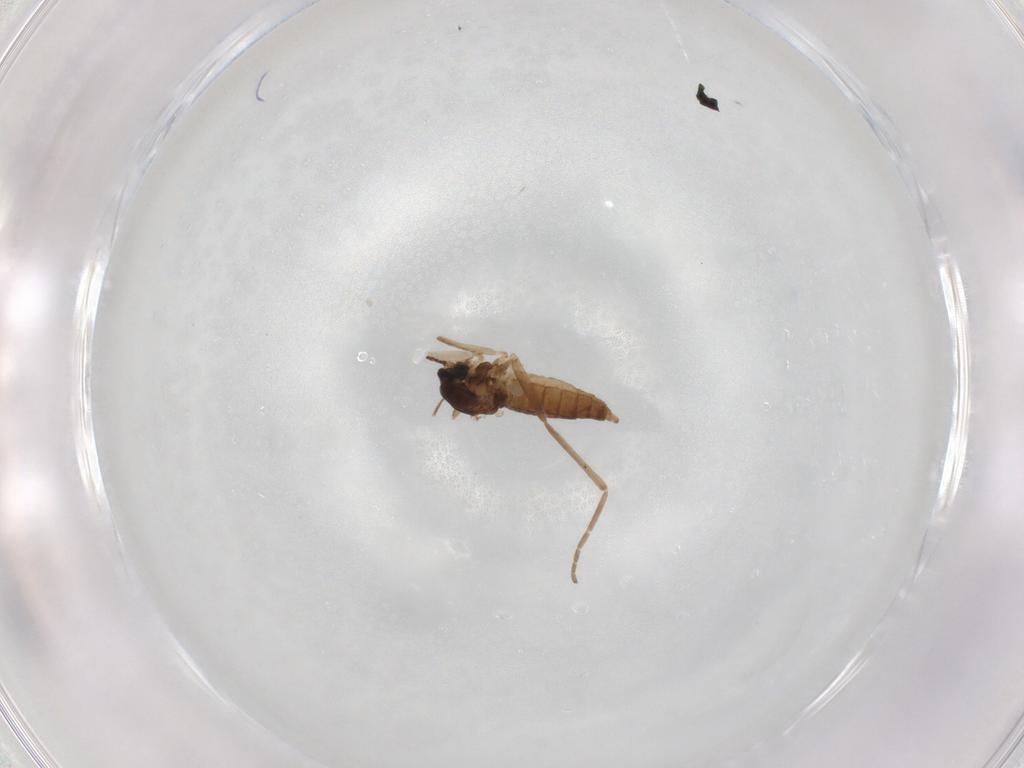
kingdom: Animalia
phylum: Arthropoda
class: Insecta
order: Diptera
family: Cecidomyiidae
